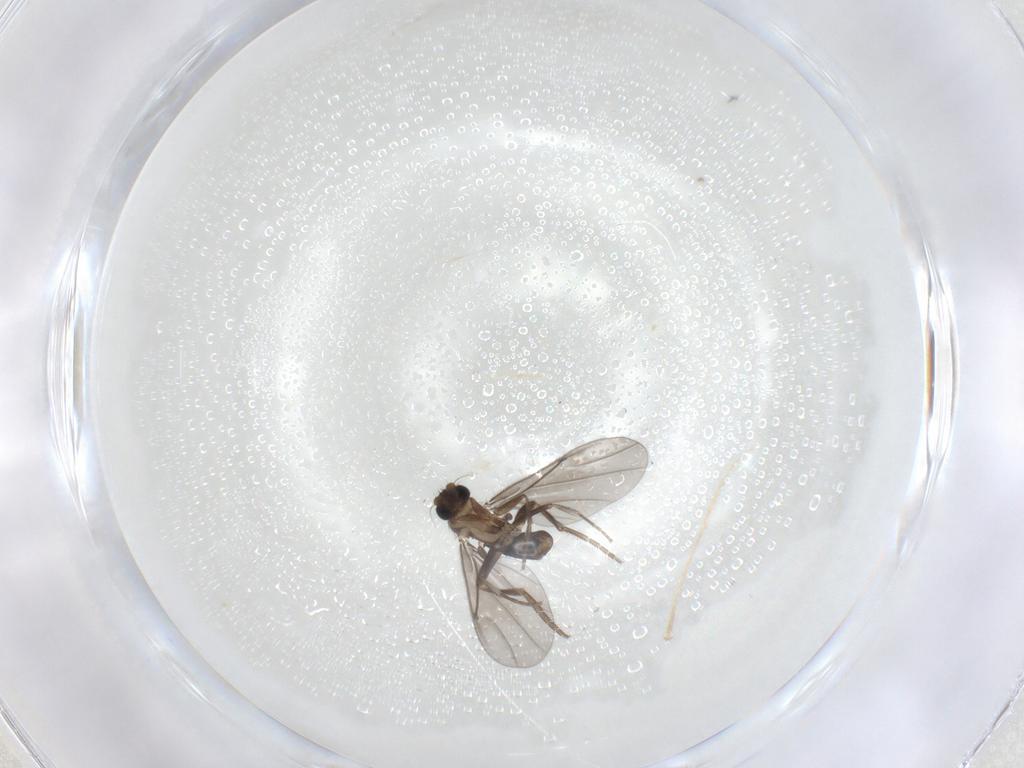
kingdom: Animalia
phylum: Arthropoda
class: Insecta
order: Diptera
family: Phoridae
